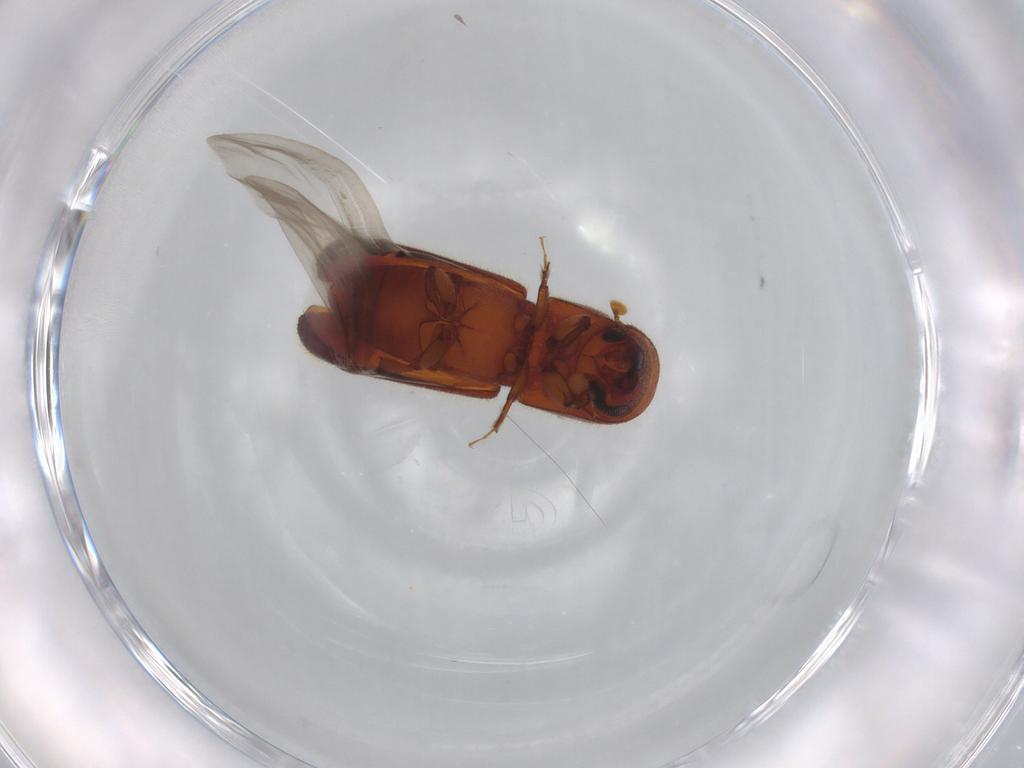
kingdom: Animalia
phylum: Arthropoda
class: Insecta
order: Coleoptera
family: Curculionidae
